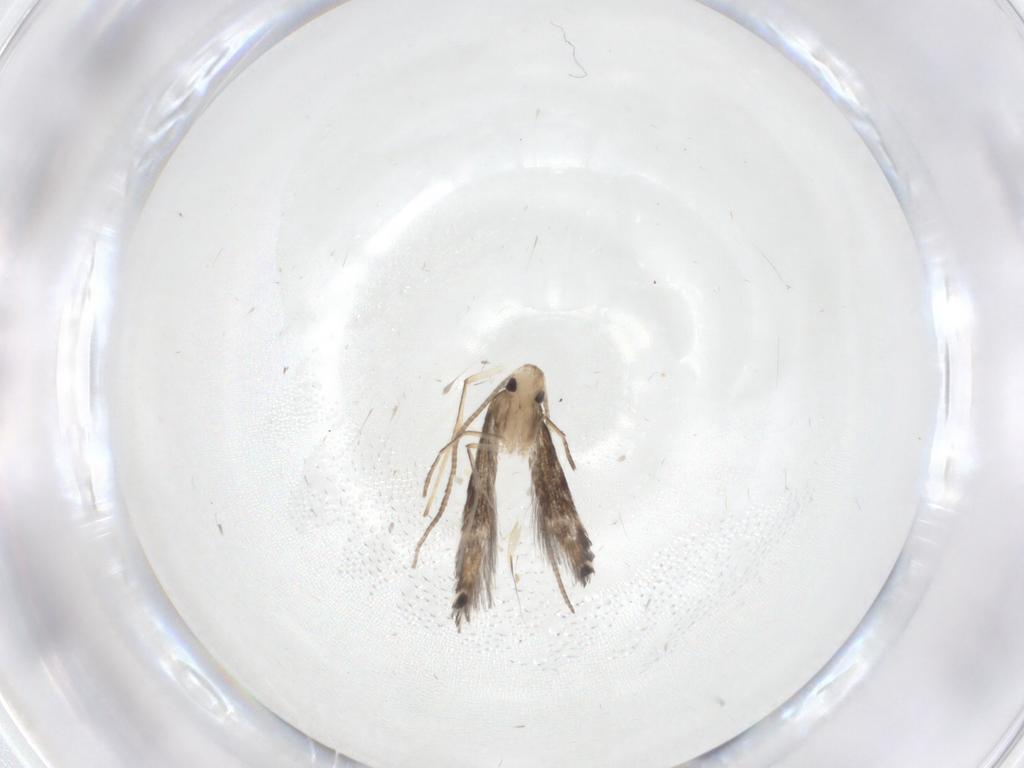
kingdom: Animalia
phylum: Arthropoda
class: Insecta
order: Lepidoptera
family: Nepticulidae
